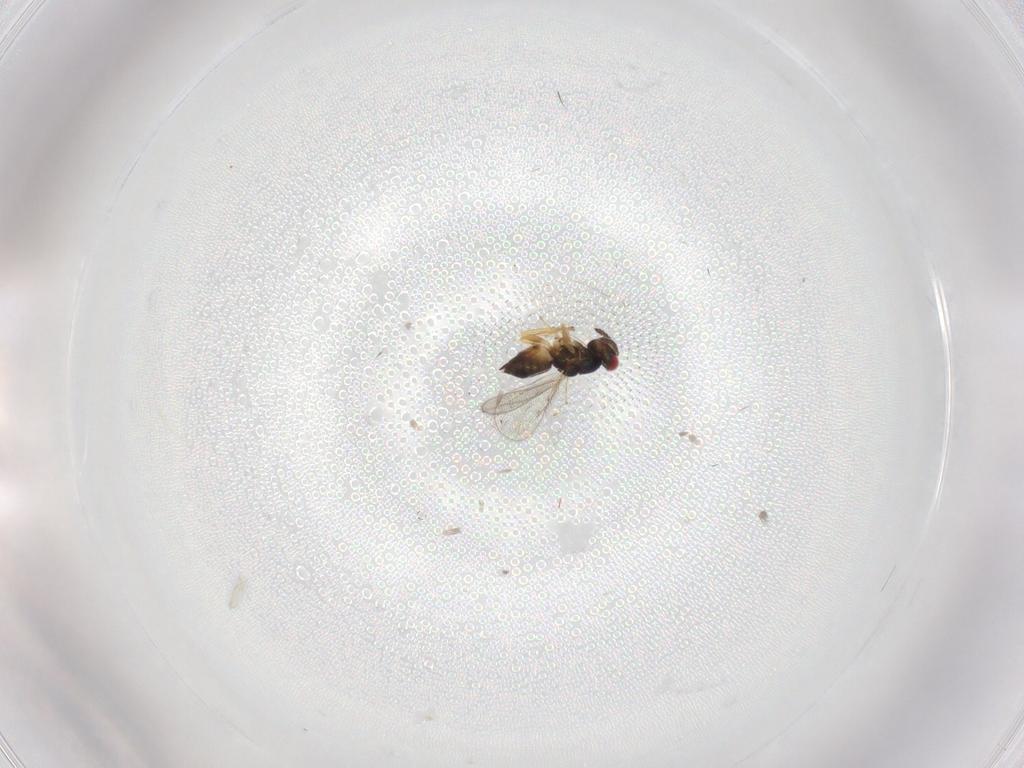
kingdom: Animalia
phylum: Arthropoda
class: Insecta
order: Hymenoptera
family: Eulophidae
